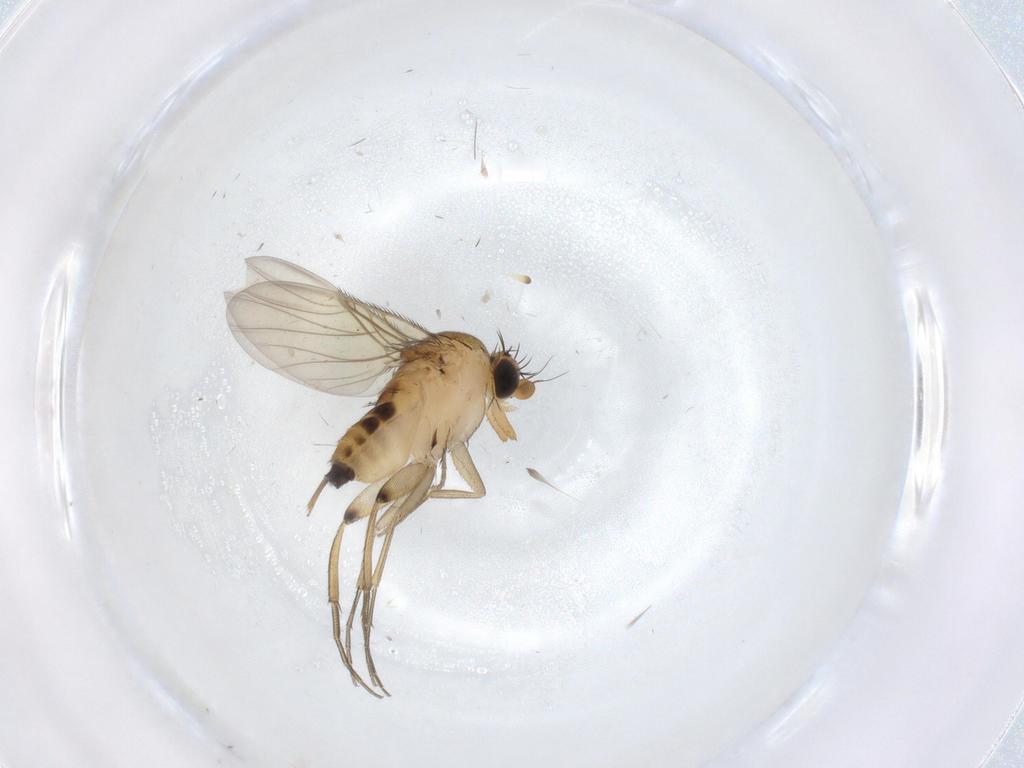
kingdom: Animalia
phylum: Arthropoda
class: Insecta
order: Diptera
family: Phoridae
